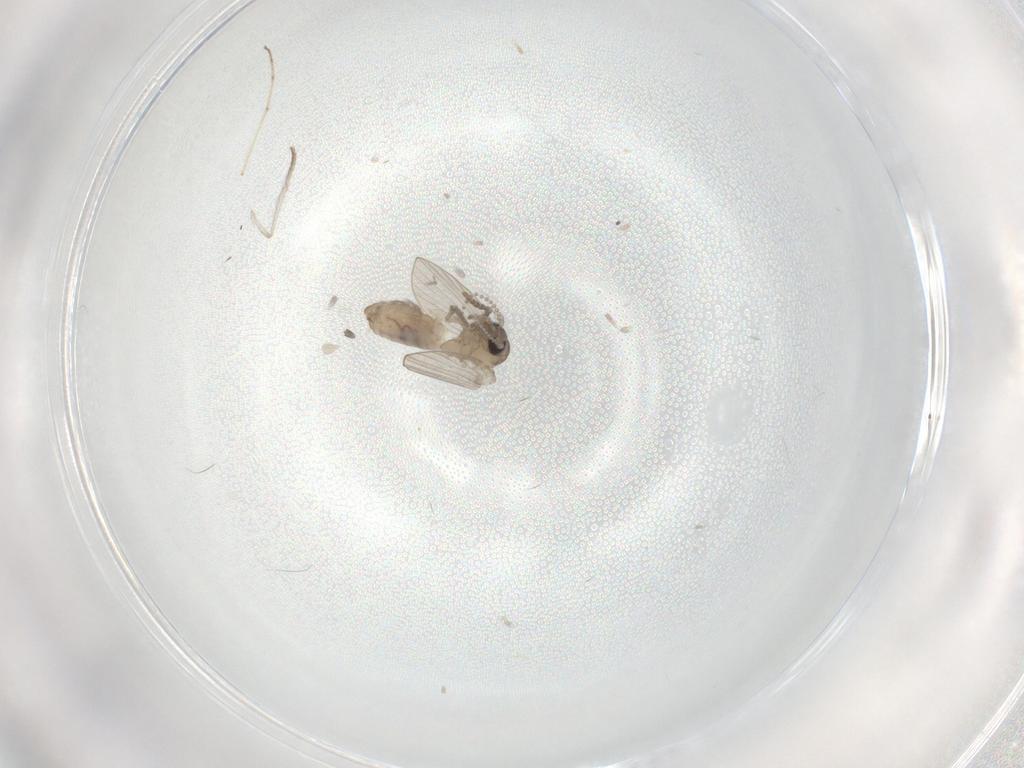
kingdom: Animalia
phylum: Arthropoda
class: Insecta
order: Diptera
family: Psychodidae
